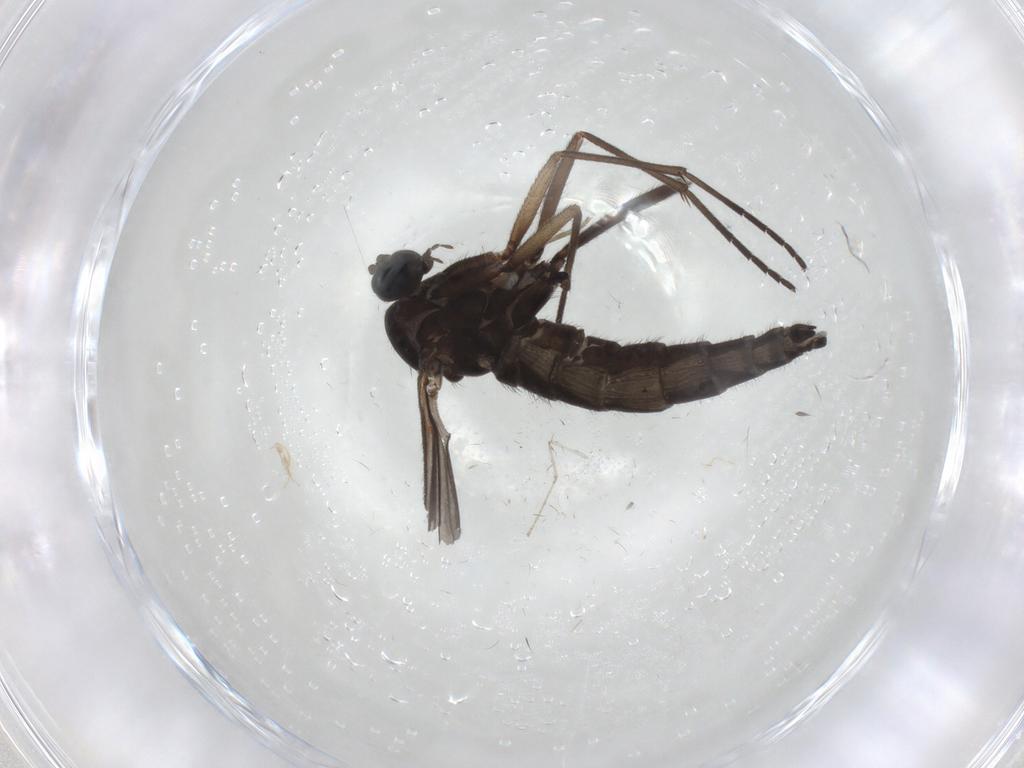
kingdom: Animalia
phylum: Arthropoda
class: Insecta
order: Diptera
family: Sciaridae
